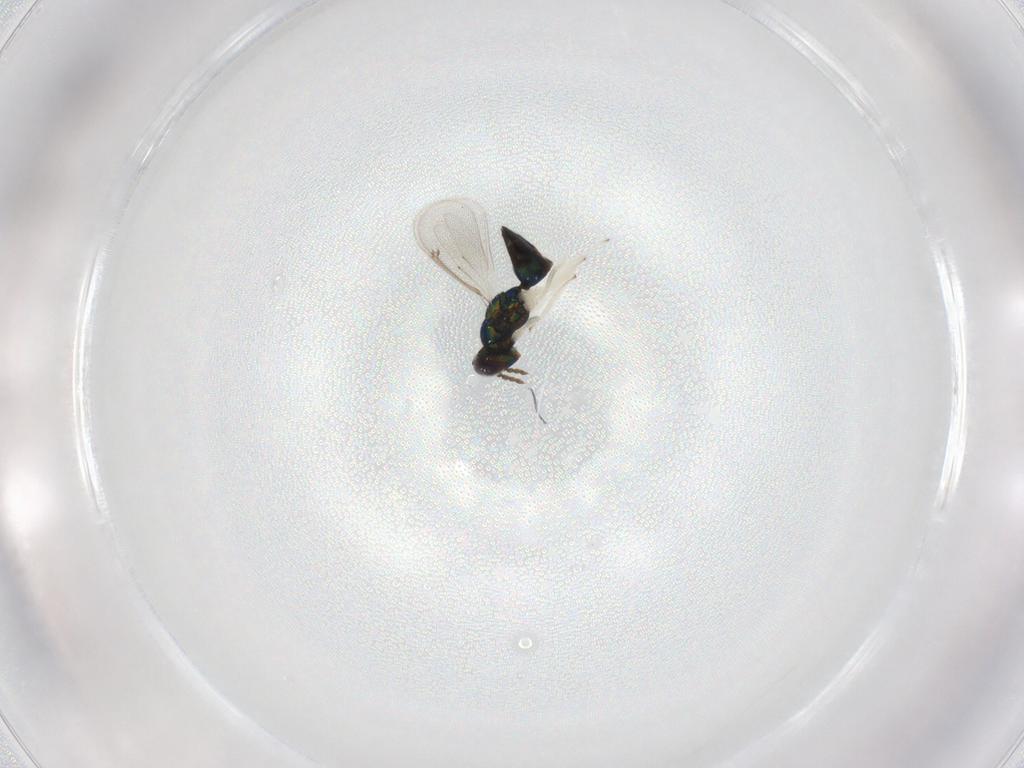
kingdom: Animalia
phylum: Arthropoda
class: Insecta
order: Hymenoptera
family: Eulophidae
